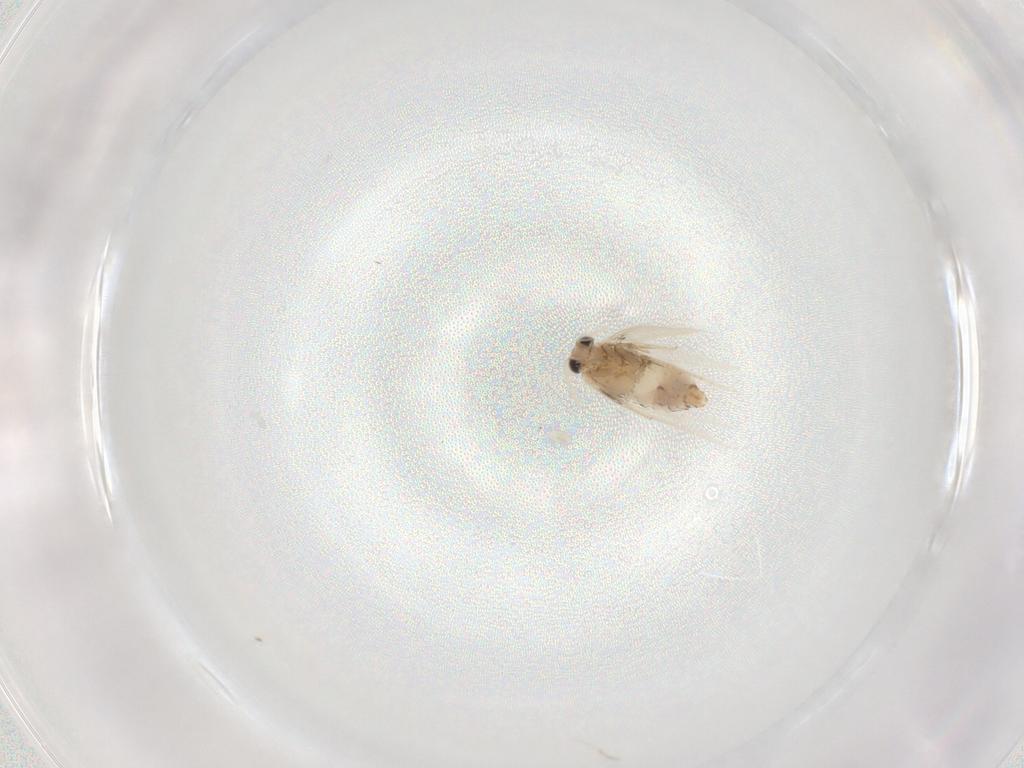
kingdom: Animalia
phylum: Arthropoda
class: Insecta
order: Lepidoptera
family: Nepticulidae
